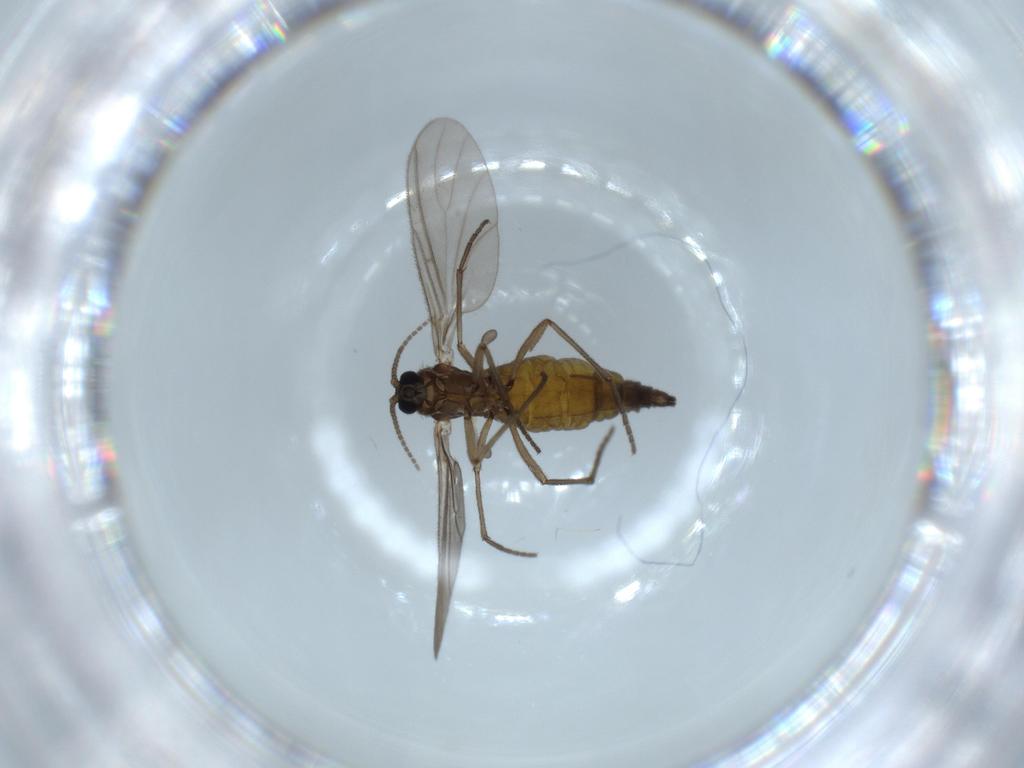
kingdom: Animalia
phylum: Arthropoda
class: Insecta
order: Diptera
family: Sciaridae
